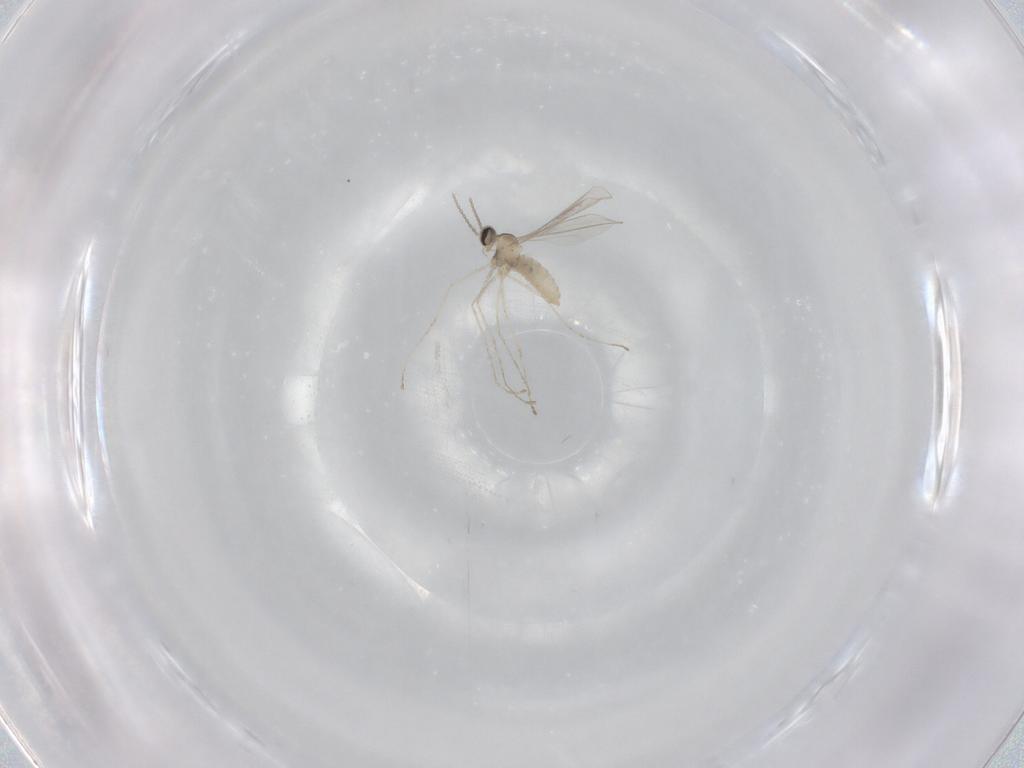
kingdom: Animalia
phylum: Arthropoda
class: Insecta
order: Diptera
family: Cecidomyiidae
